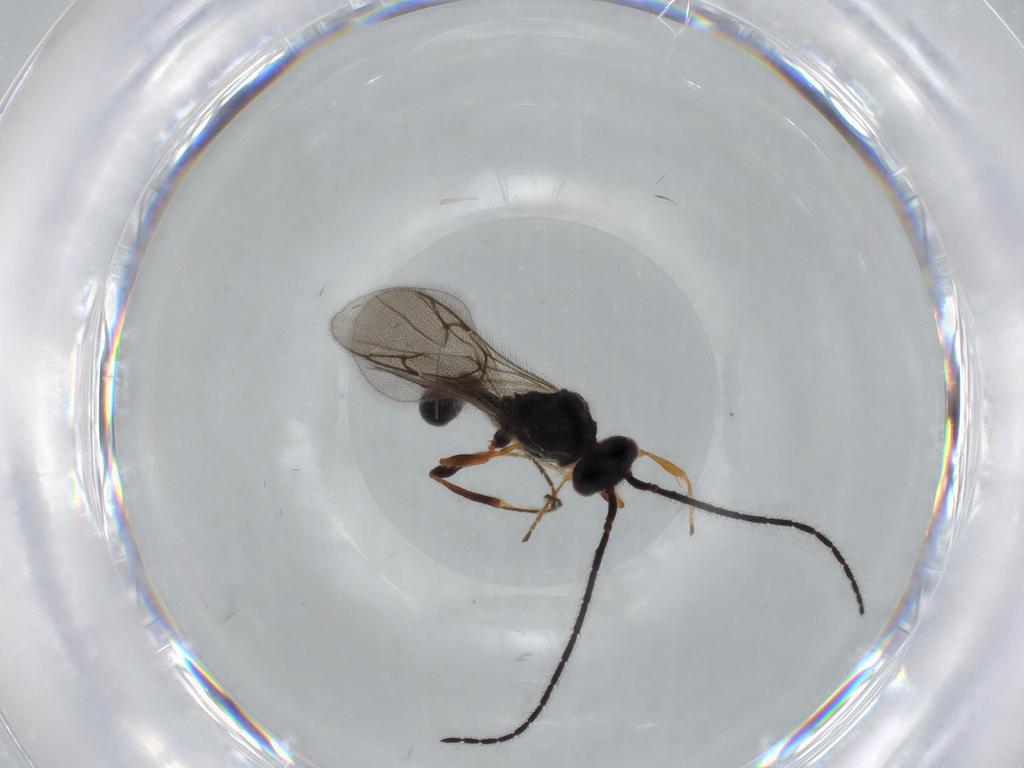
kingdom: Animalia
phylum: Arthropoda
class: Insecta
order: Hymenoptera
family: Diapriidae
